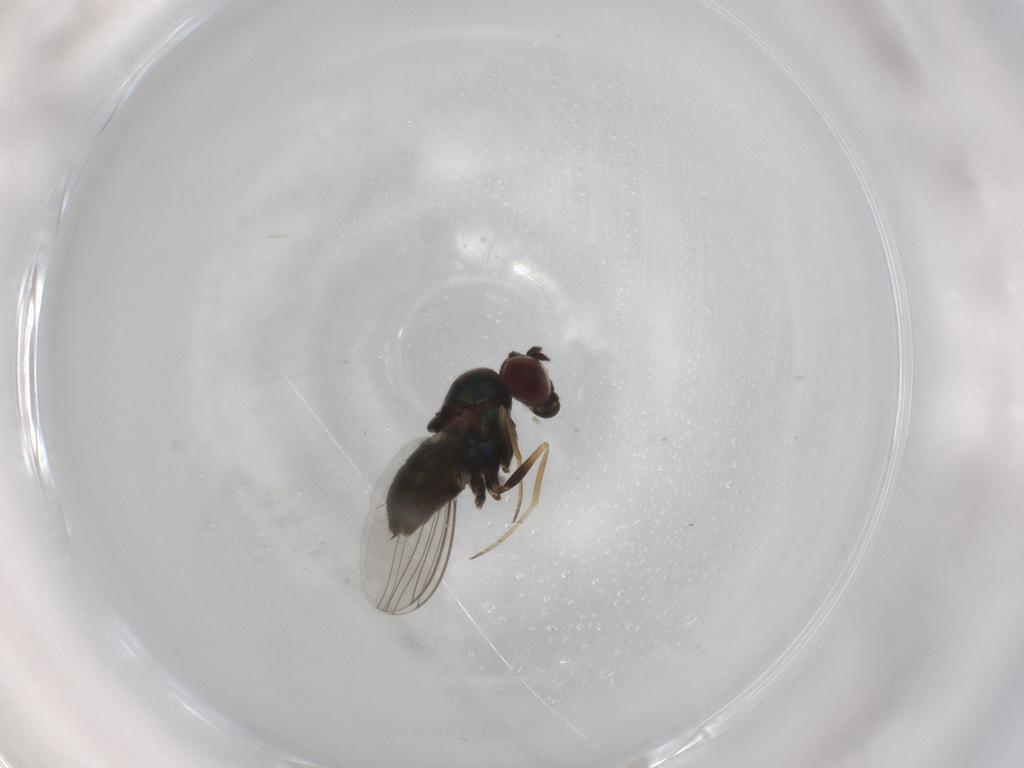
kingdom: Animalia
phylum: Arthropoda
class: Insecta
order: Diptera
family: Dolichopodidae
